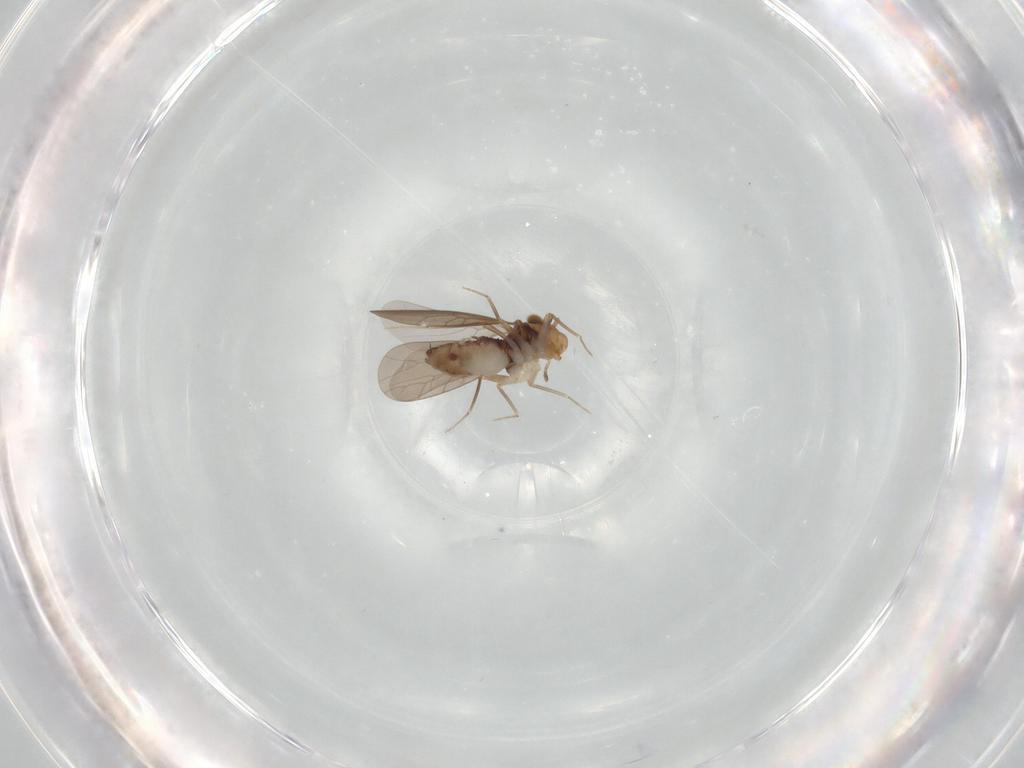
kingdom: Animalia
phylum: Arthropoda
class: Insecta
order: Psocodea
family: Lepidopsocidae
